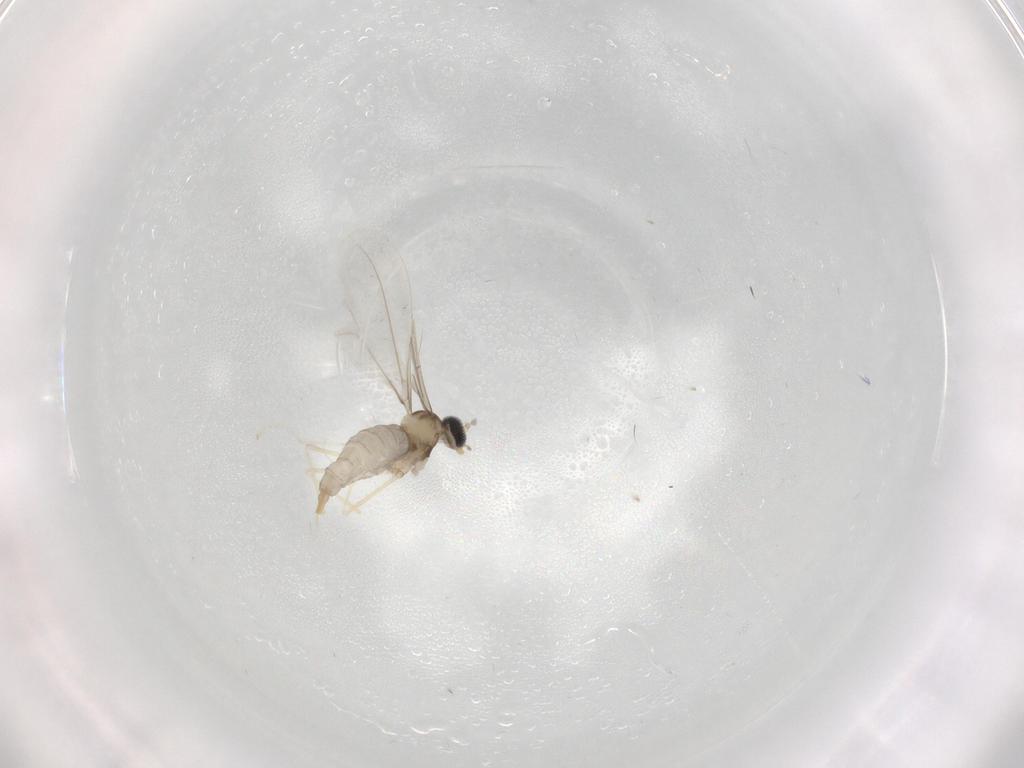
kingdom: Animalia
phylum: Arthropoda
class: Insecta
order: Diptera
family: Cecidomyiidae
